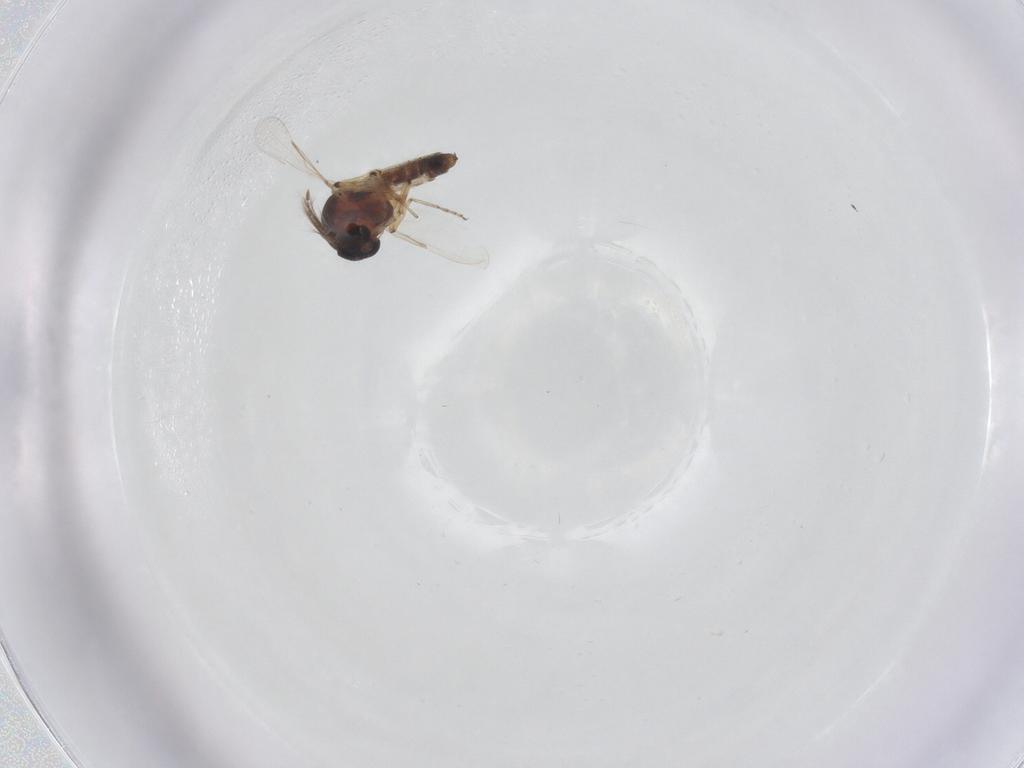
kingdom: Animalia
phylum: Arthropoda
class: Insecta
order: Diptera
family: Ceratopogonidae
